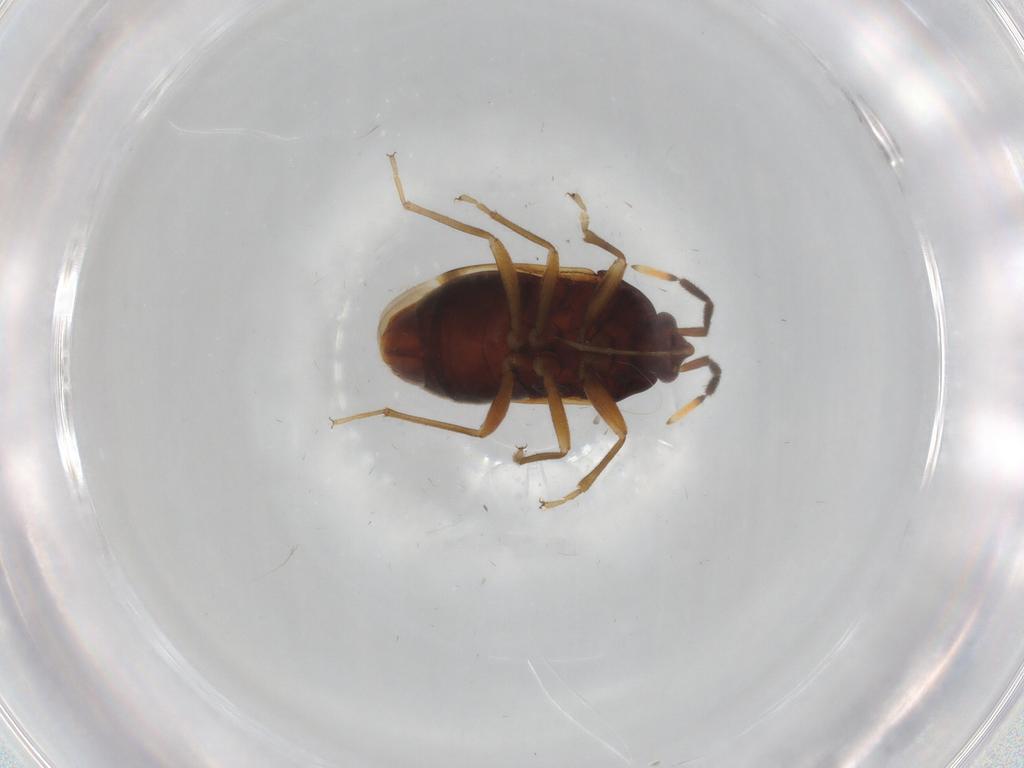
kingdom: Animalia
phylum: Arthropoda
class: Insecta
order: Hemiptera
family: Rhyparochromidae
